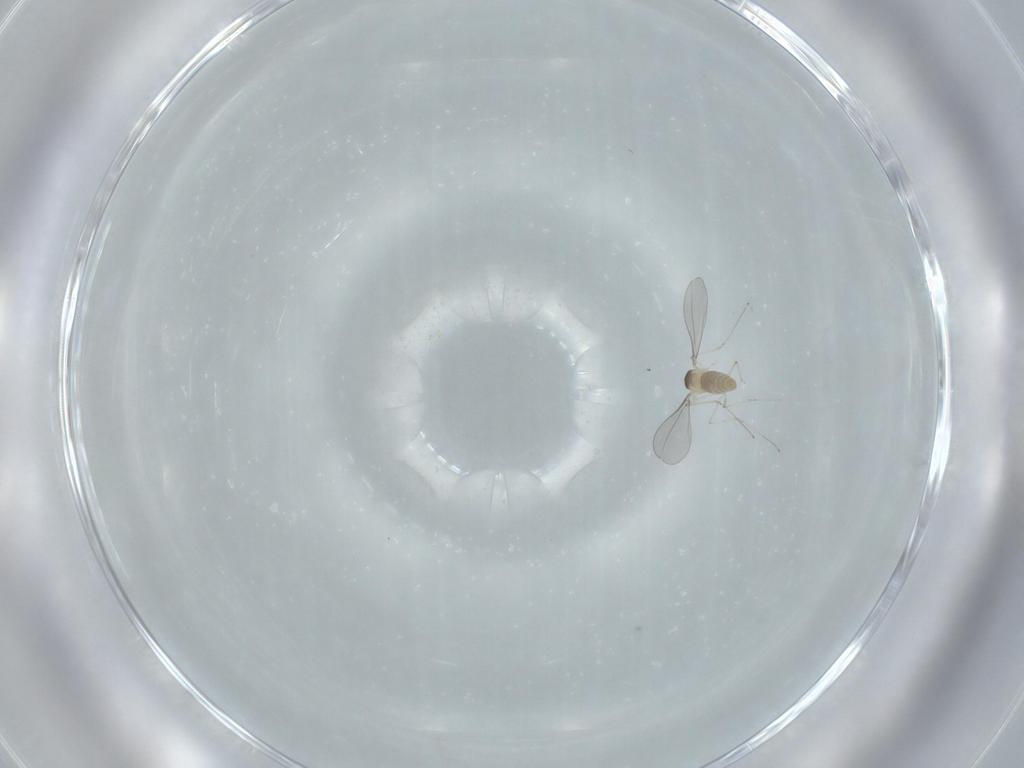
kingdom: Animalia
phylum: Arthropoda
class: Insecta
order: Diptera
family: Cecidomyiidae
